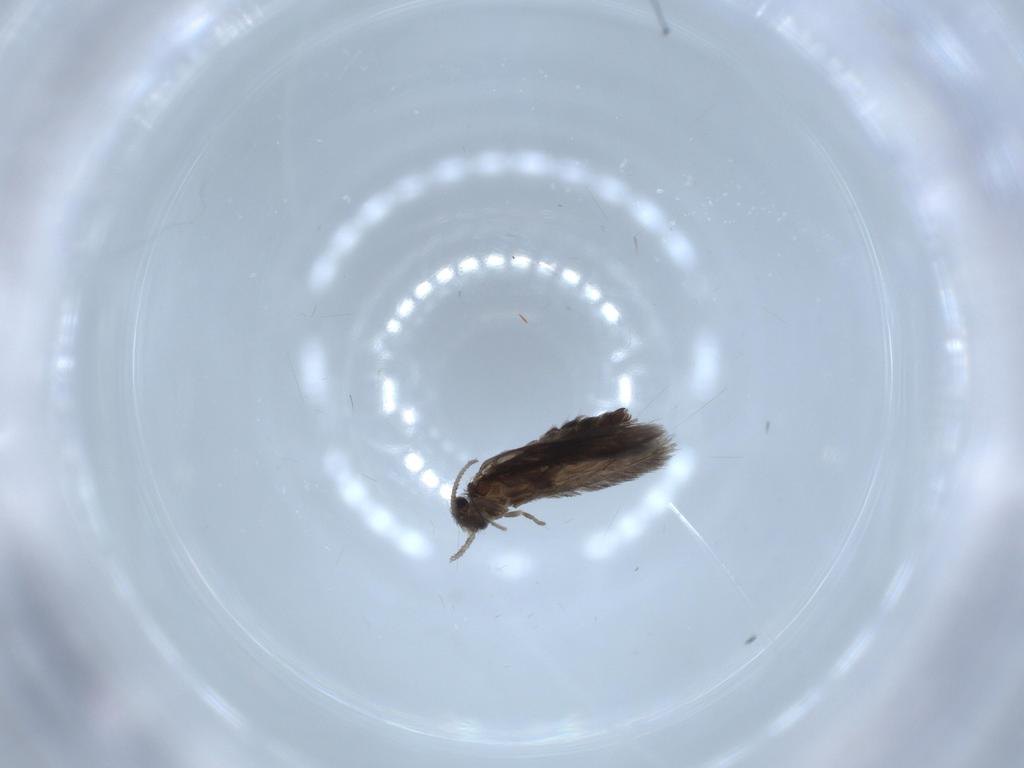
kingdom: Animalia
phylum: Arthropoda
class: Insecta
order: Trichoptera
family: Hydroptilidae
